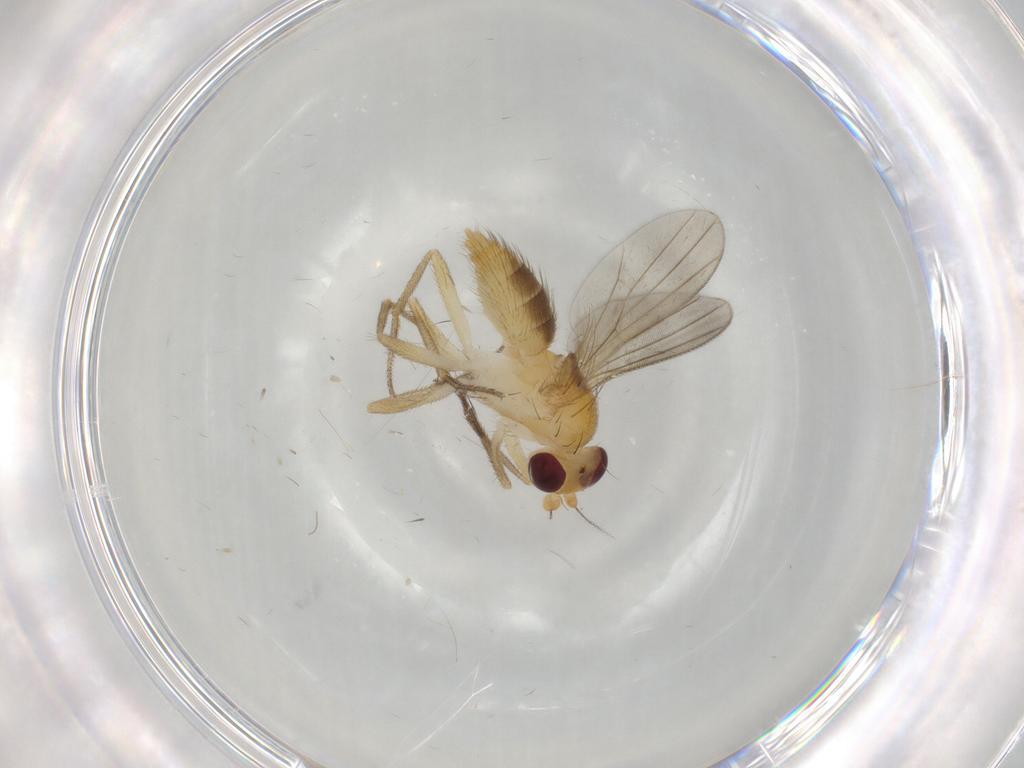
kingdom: Animalia
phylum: Arthropoda
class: Insecta
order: Diptera
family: Clusiidae
